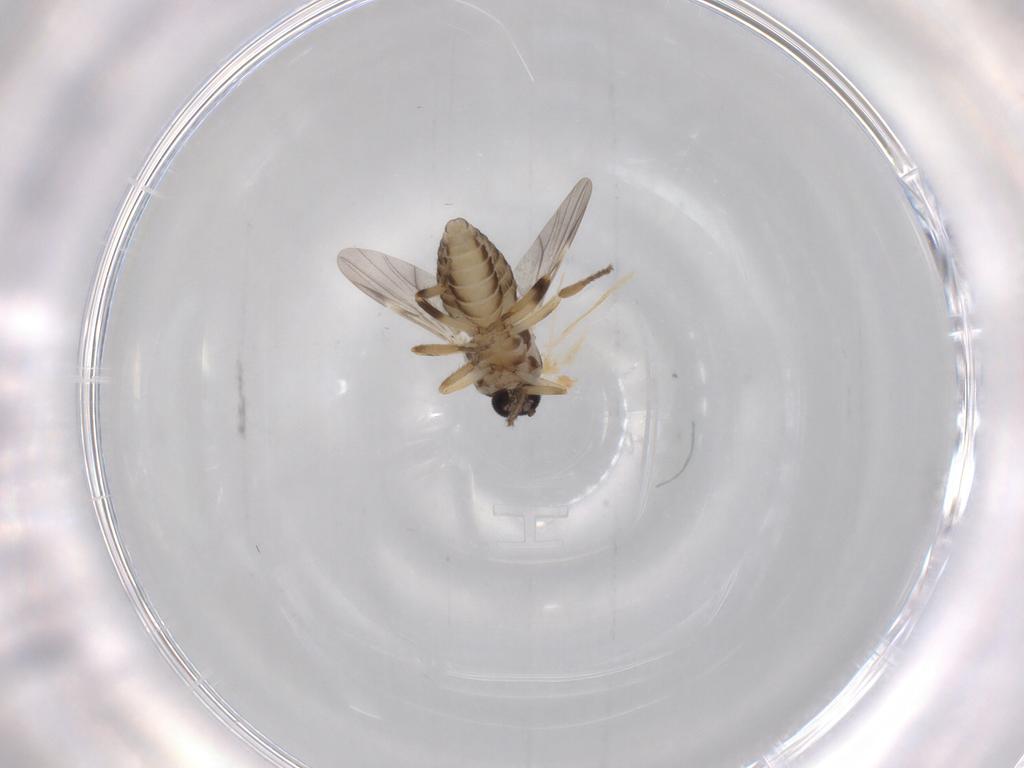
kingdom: Animalia
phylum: Arthropoda
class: Insecta
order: Diptera
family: Ceratopogonidae
